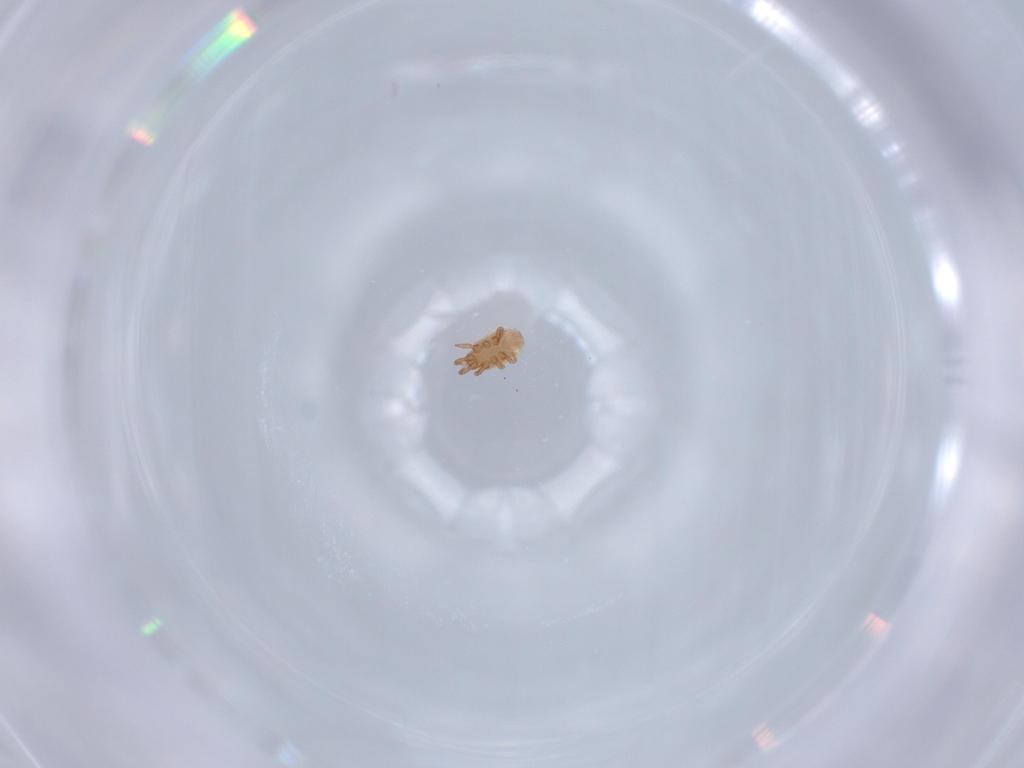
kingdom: Animalia
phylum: Arthropoda
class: Arachnida
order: Mesostigmata
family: Dinychidae
